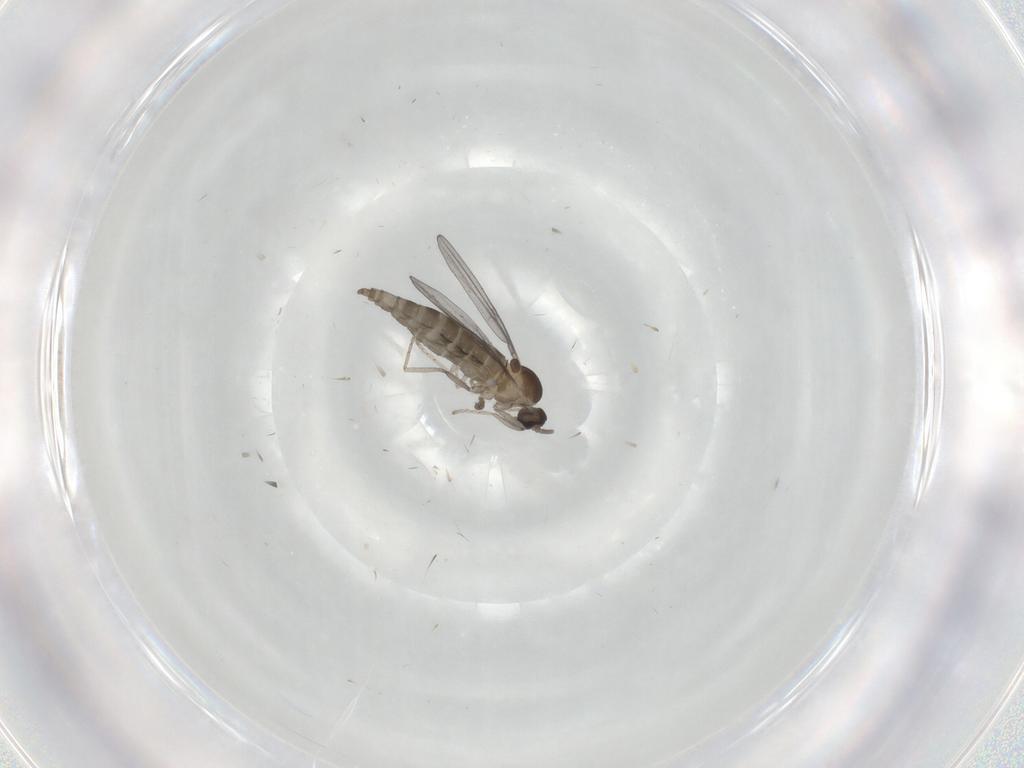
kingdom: Animalia
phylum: Arthropoda
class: Insecta
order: Diptera
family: Cecidomyiidae
